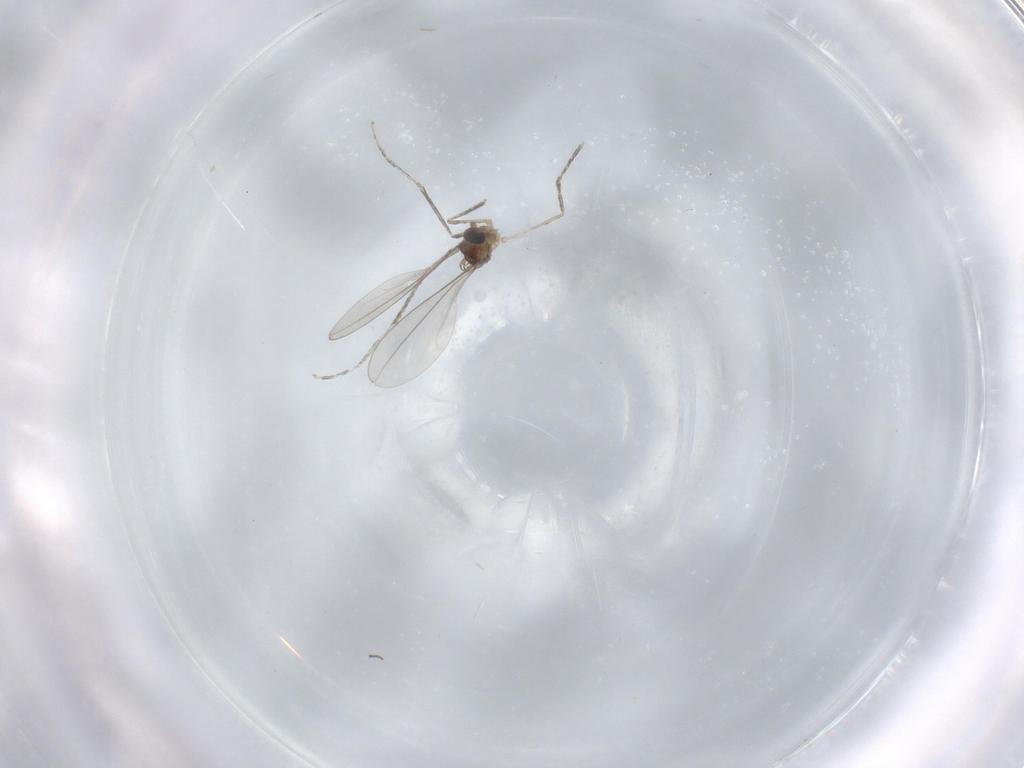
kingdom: Animalia
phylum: Arthropoda
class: Insecta
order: Diptera
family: Cecidomyiidae
